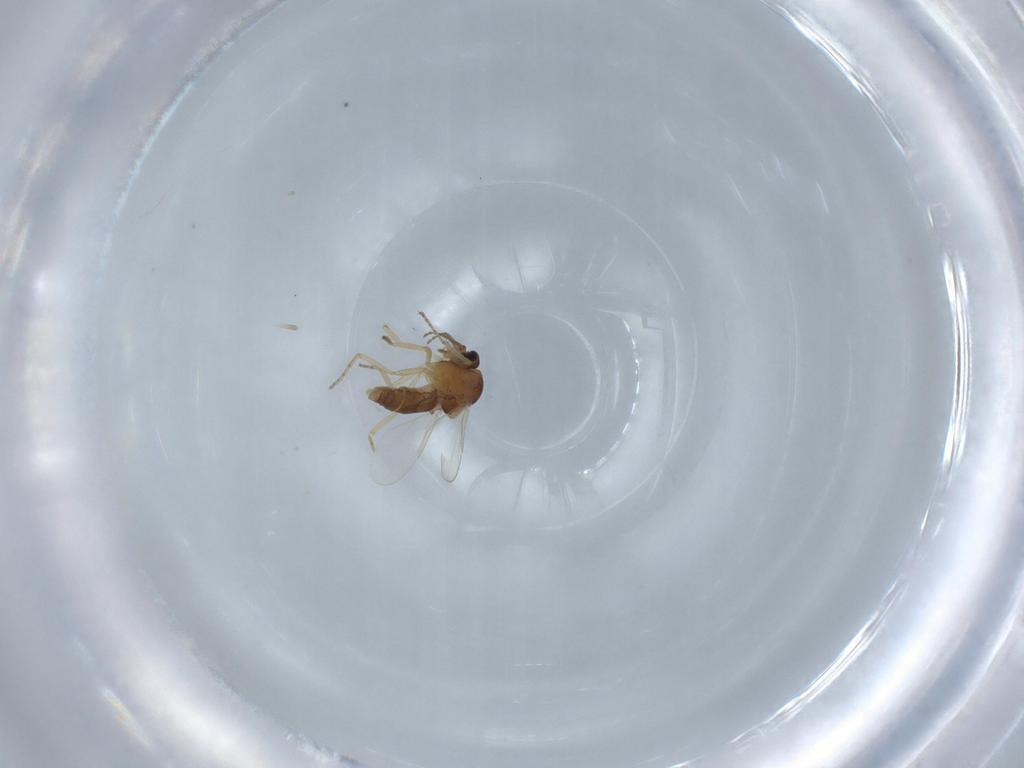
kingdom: Animalia
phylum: Arthropoda
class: Insecta
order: Diptera
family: Ceratopogonidae
